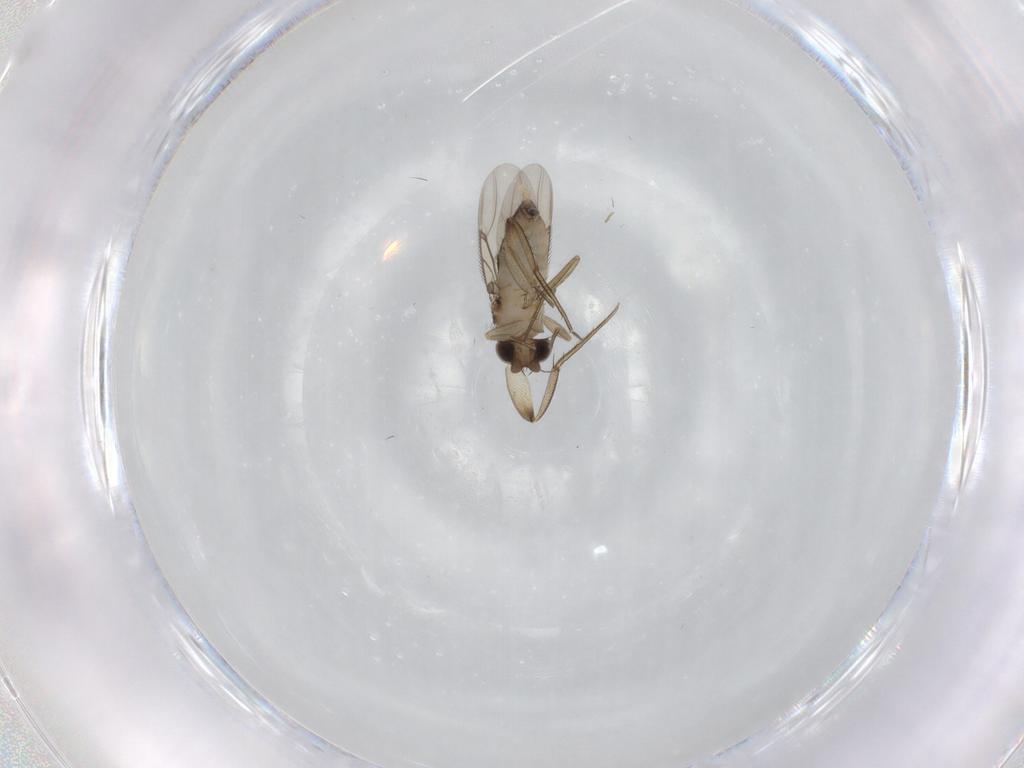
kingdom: Animalia
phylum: Arthropoda
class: Insecta
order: Diptera
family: Phoridae
